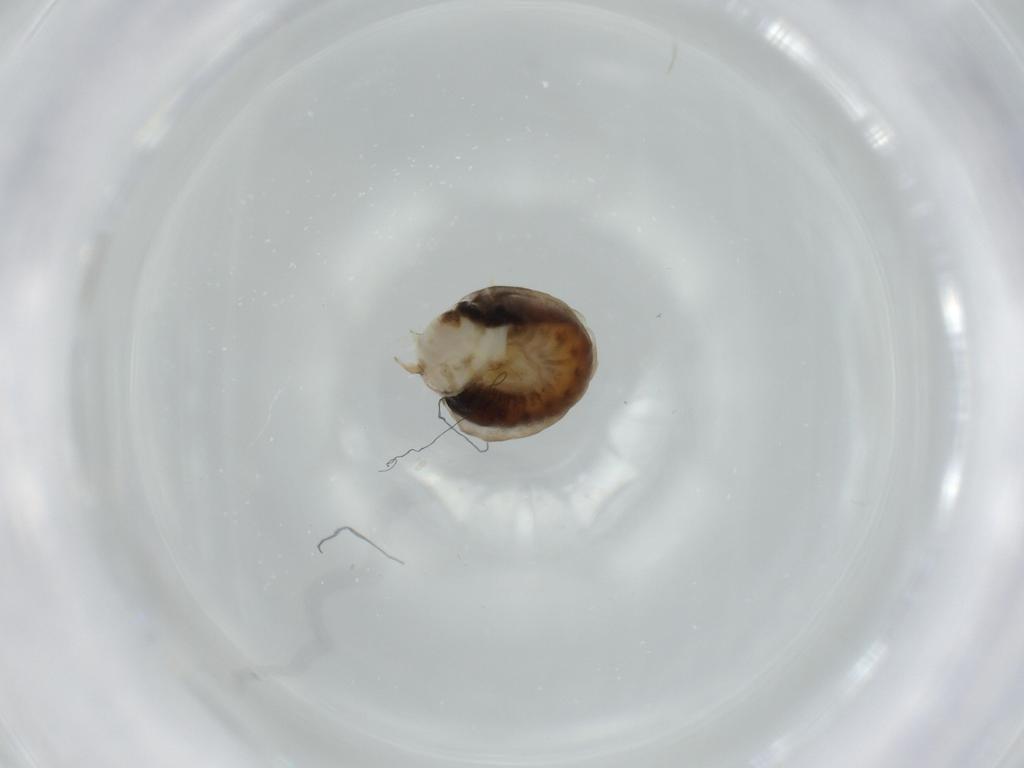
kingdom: Animalia
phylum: Arthropoda
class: Insecta
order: Hymenoptera
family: Dryinidae
